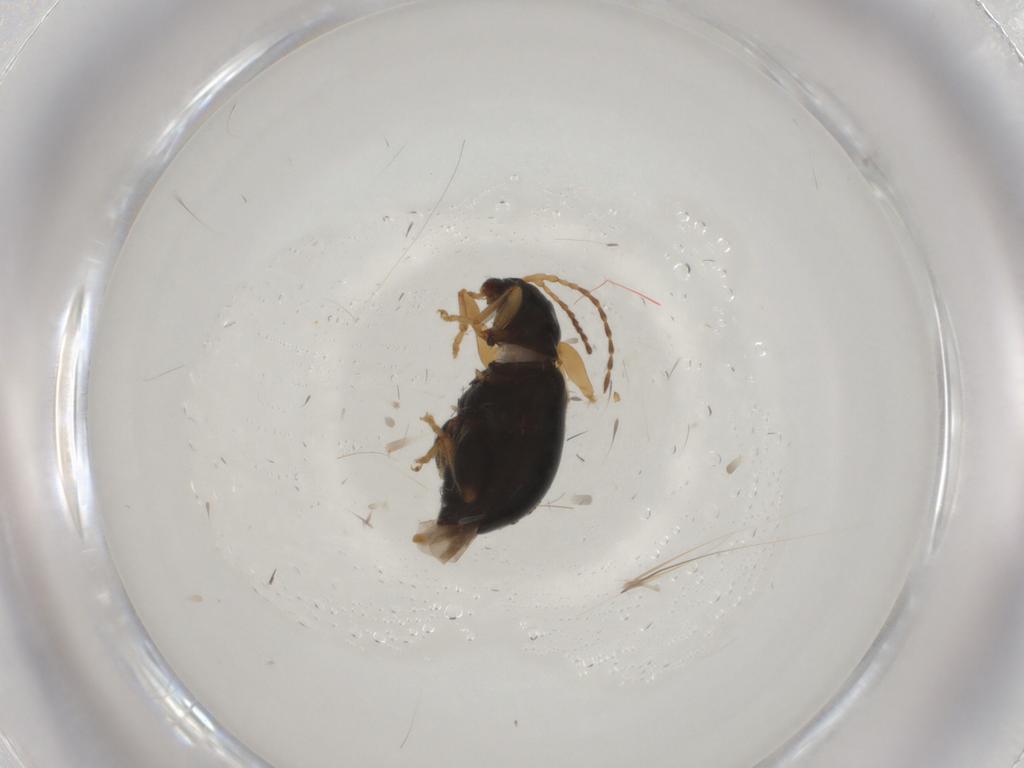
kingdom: Animalia
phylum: Arthropoda
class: Insecta
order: Coleoptera
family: Chrysomelidae
